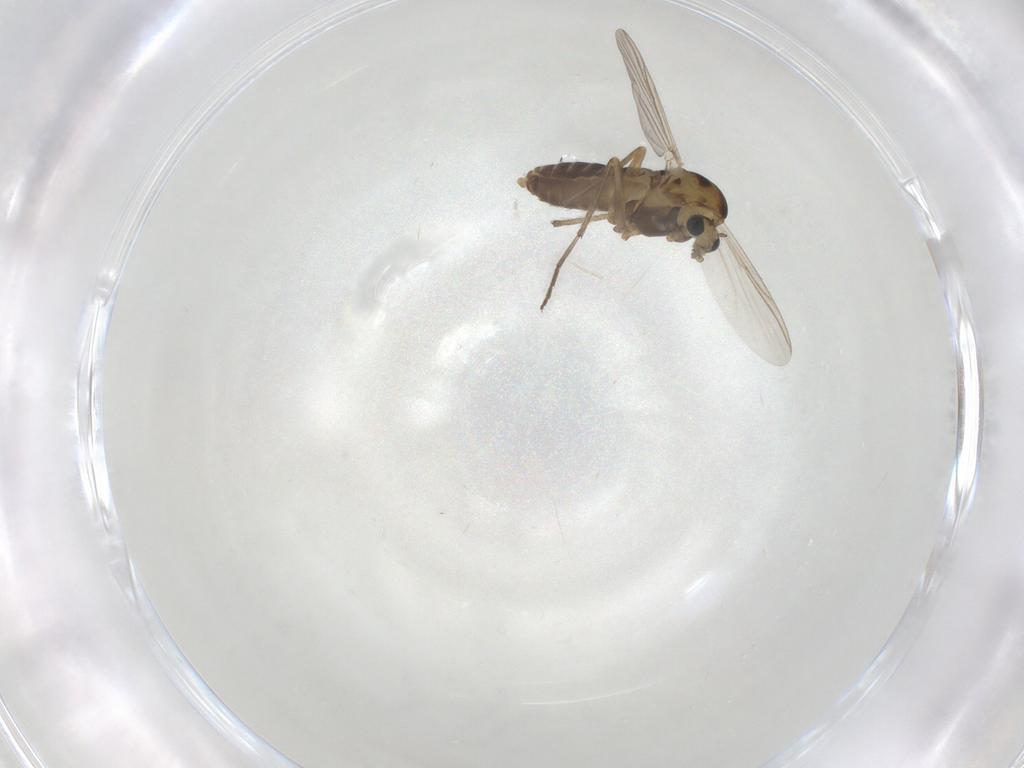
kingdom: Animalia
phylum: Arthropoda
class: Insecta
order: Diptera
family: Chironomidae
